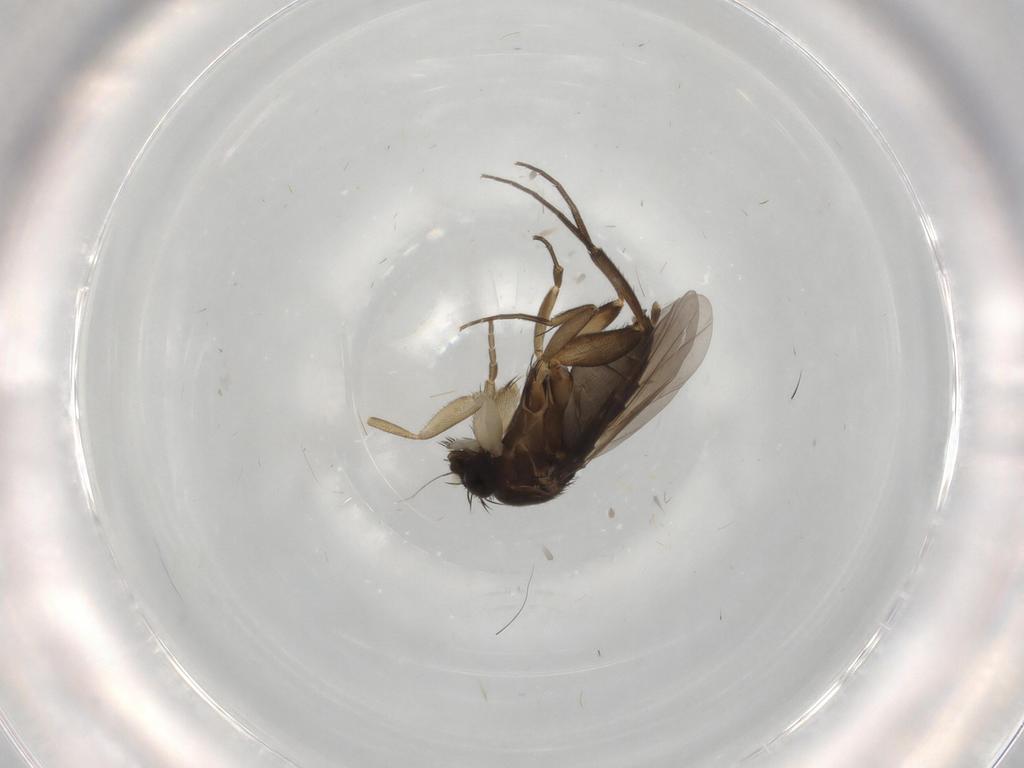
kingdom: Animalia
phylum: Arthropoda
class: Insecta
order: Diptera
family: Phoridae
